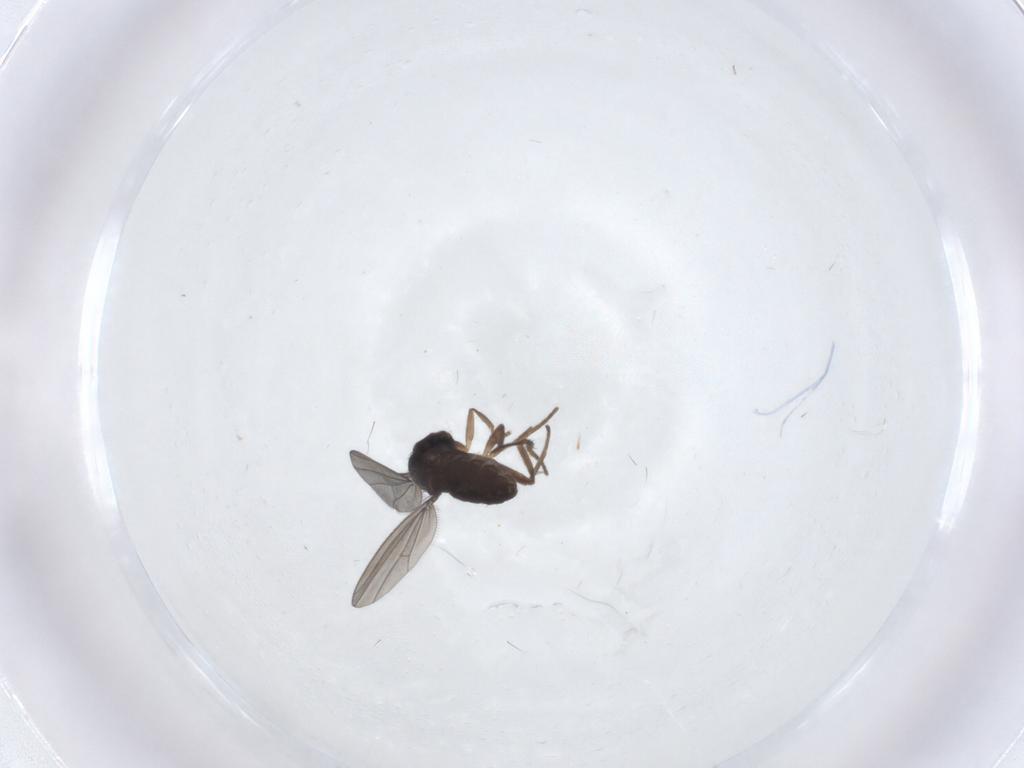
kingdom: Animalia
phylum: Arthropoda
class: Insecta
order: Diptera
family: Dolichopodidae
